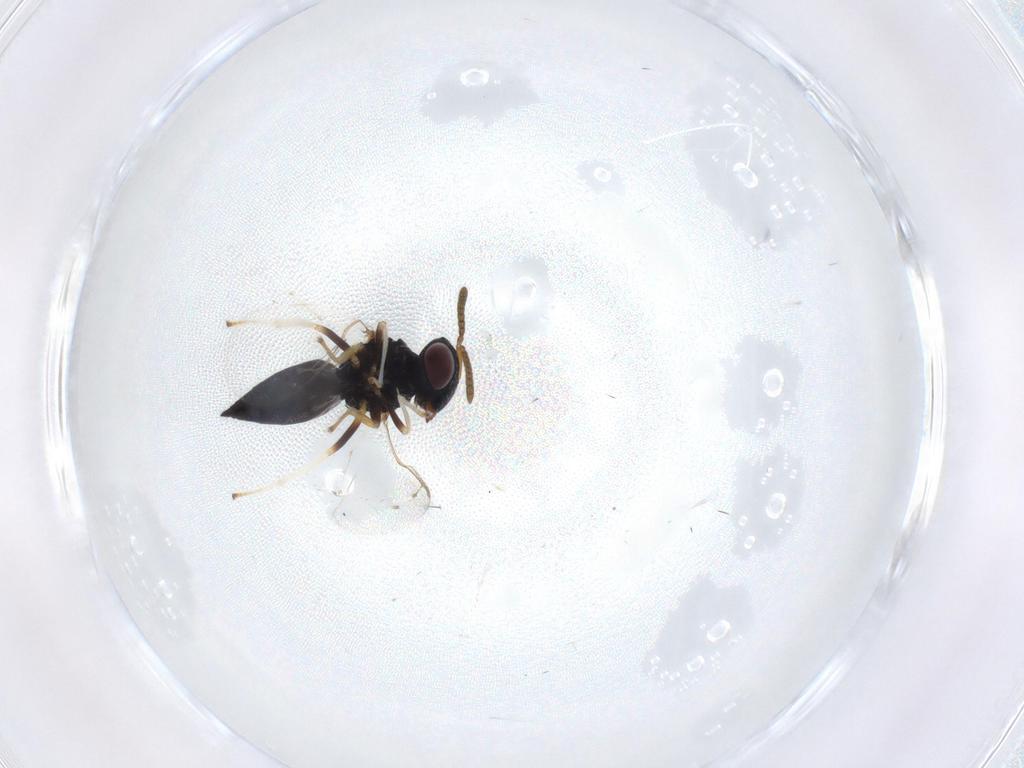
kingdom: Animalia
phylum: Arthropoda
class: Insecta
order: Hymenoptera
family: Pteromalidae
